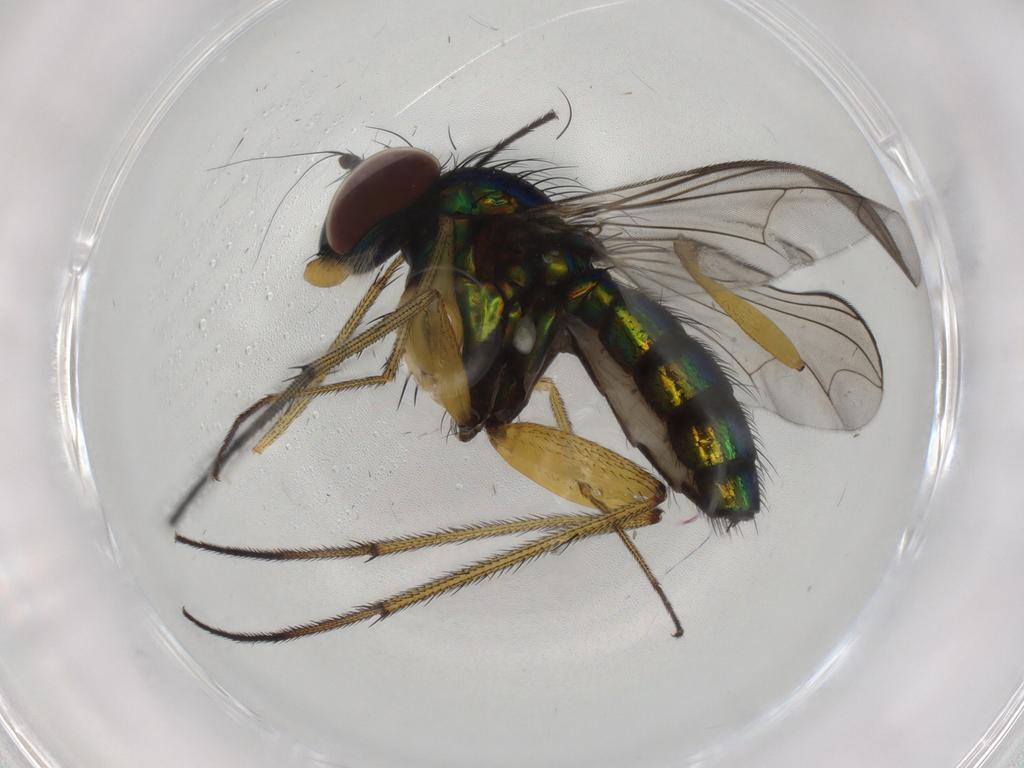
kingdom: Animalia
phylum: Arthropoda
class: Insecta
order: Diptera
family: Dolichopodidae
